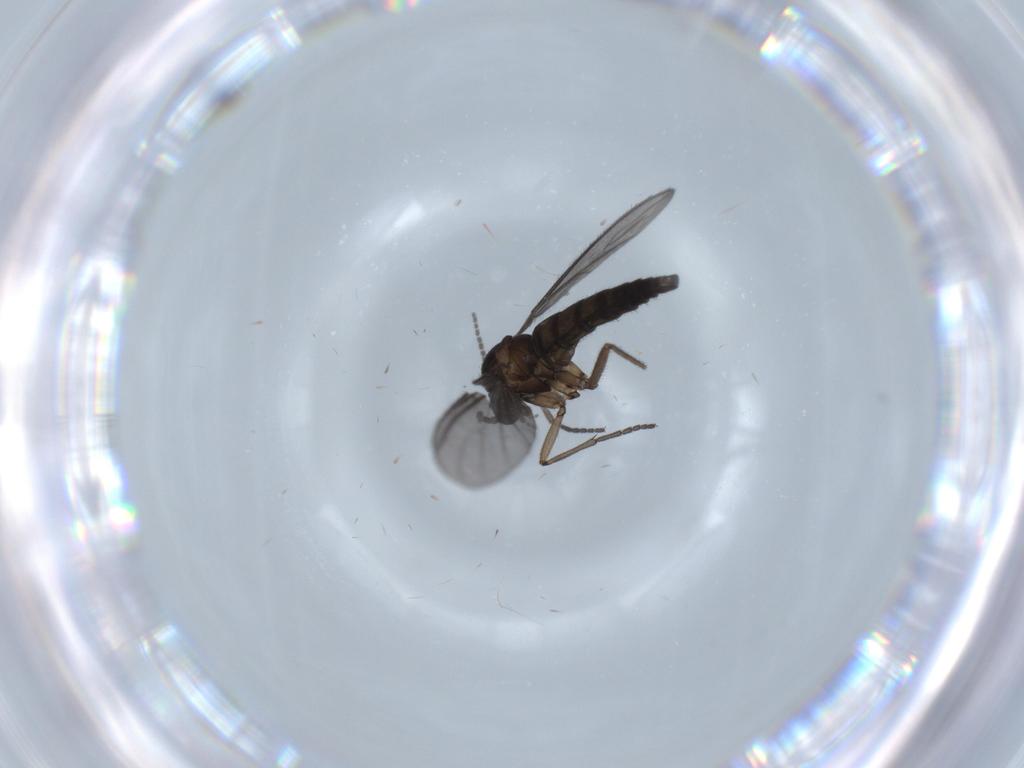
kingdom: Animalia
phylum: Arthropoda
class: Insecta
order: Diptera
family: Sciaridae
